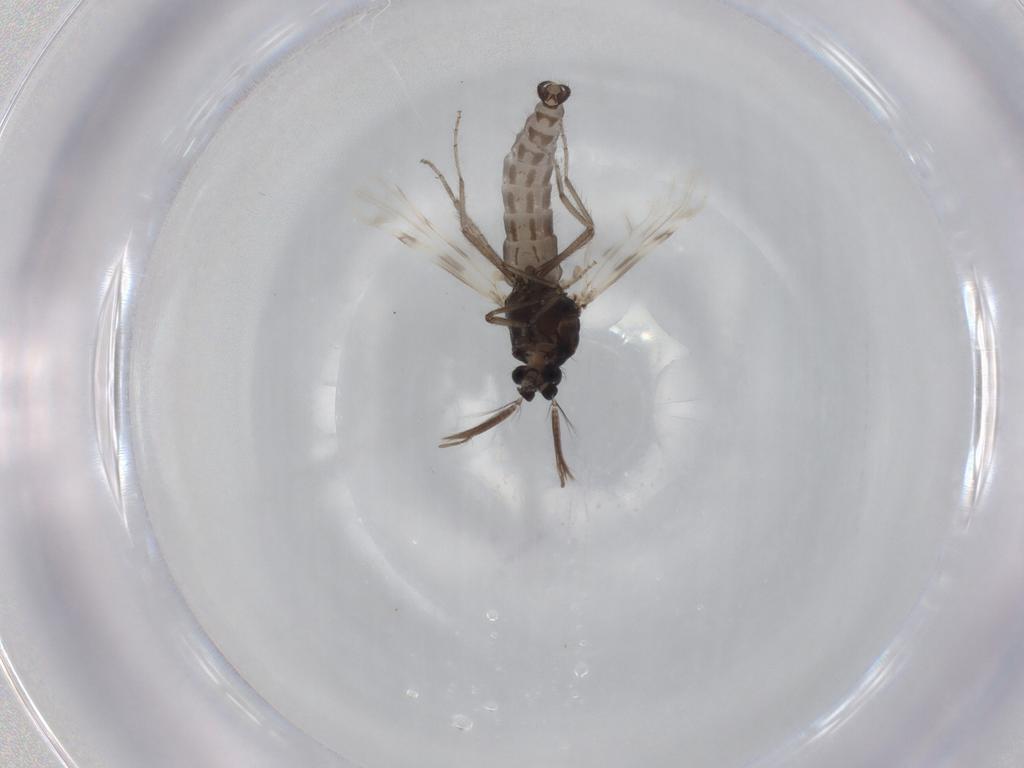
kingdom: Animalia
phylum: Arthropoda
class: Insecta
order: Diptera
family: Ceratopogonidae
